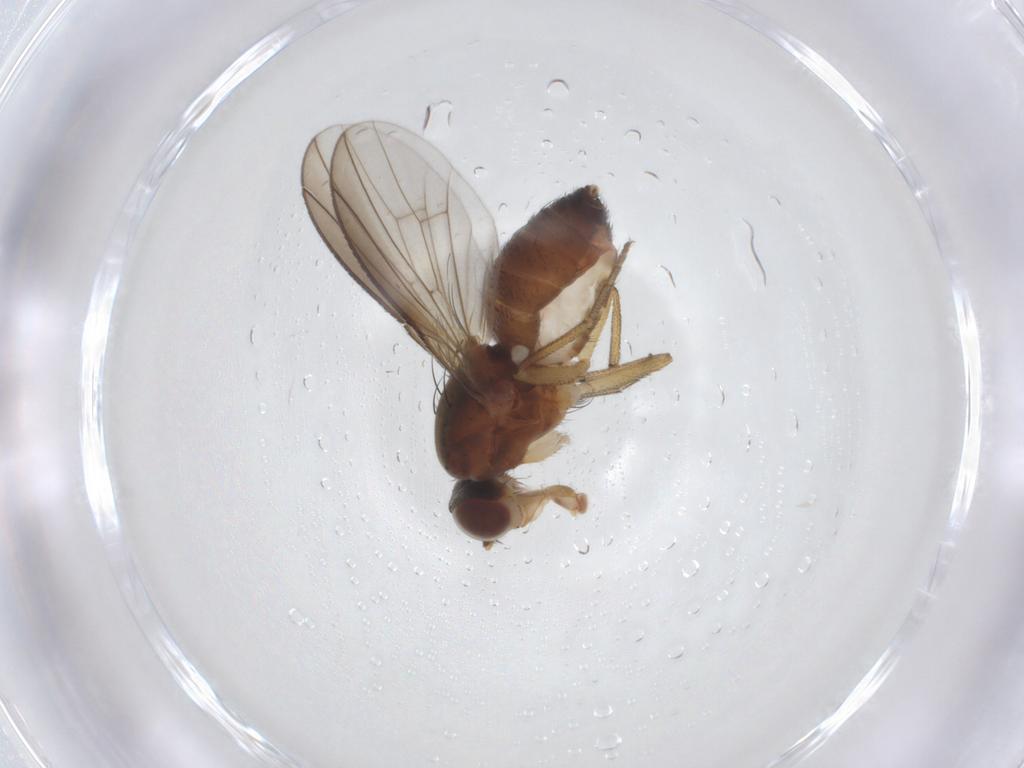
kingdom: Animalia
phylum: Arthropoda
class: Insecta
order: Diptera
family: Heleomyzidae
